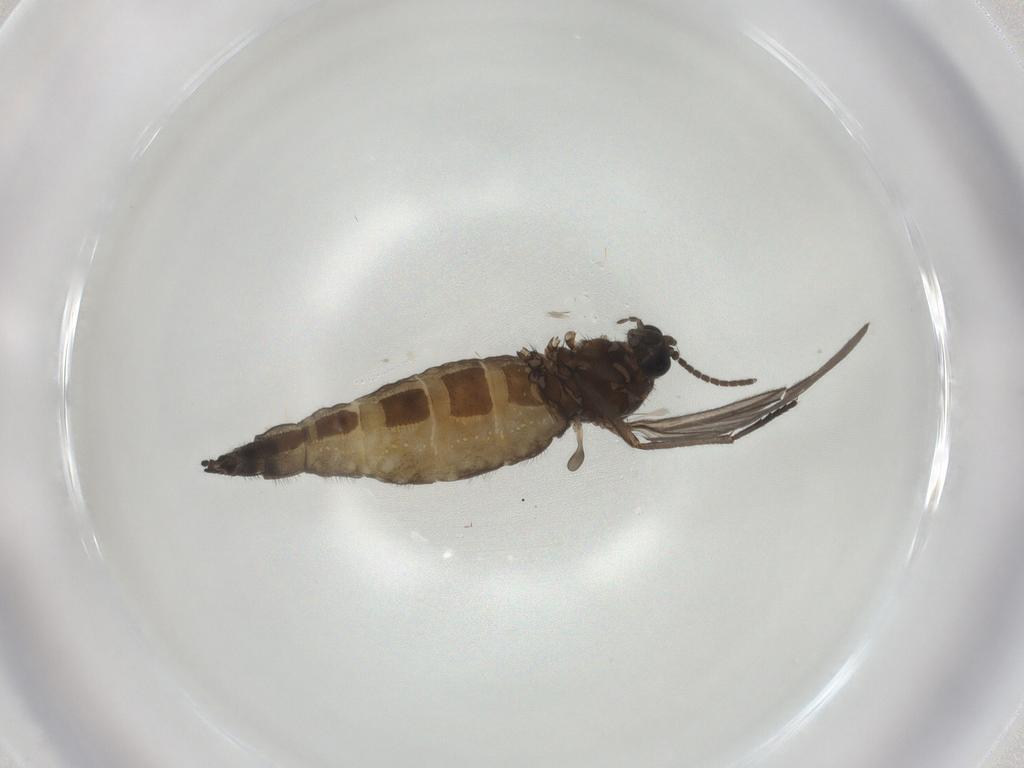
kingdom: Animalia
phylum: Arthropoda
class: Insecta
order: Diptera
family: Sciaridae
